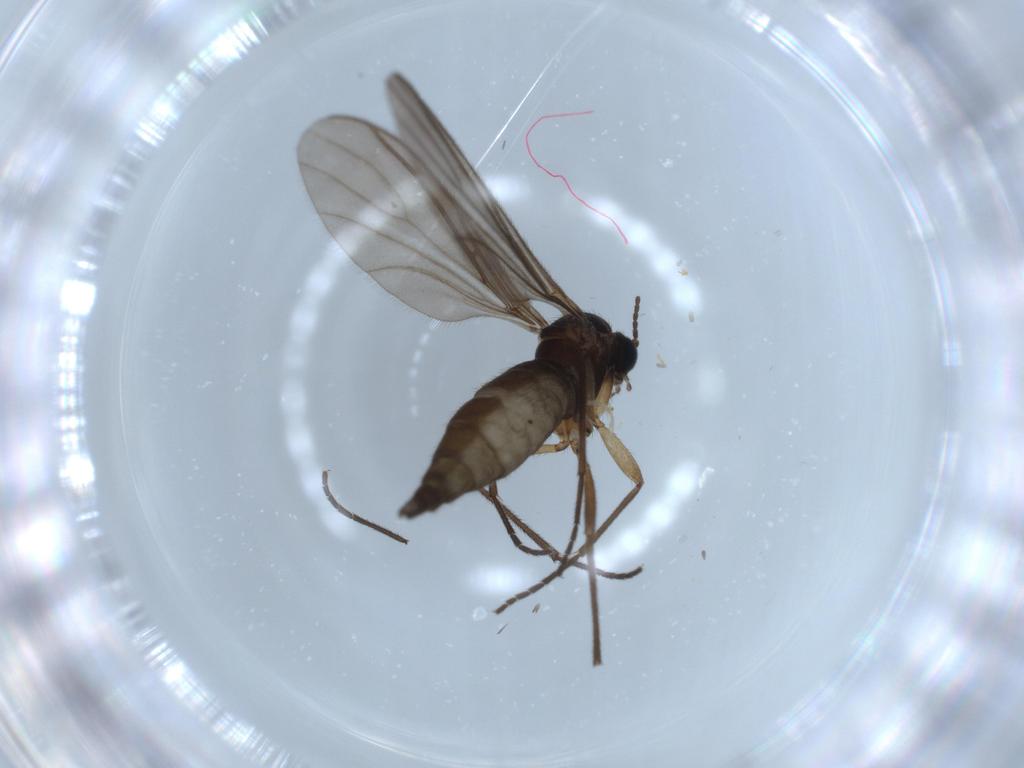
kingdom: Animalia
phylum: Arthropoda
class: Insecta
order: Diptera
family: Sciaridae
